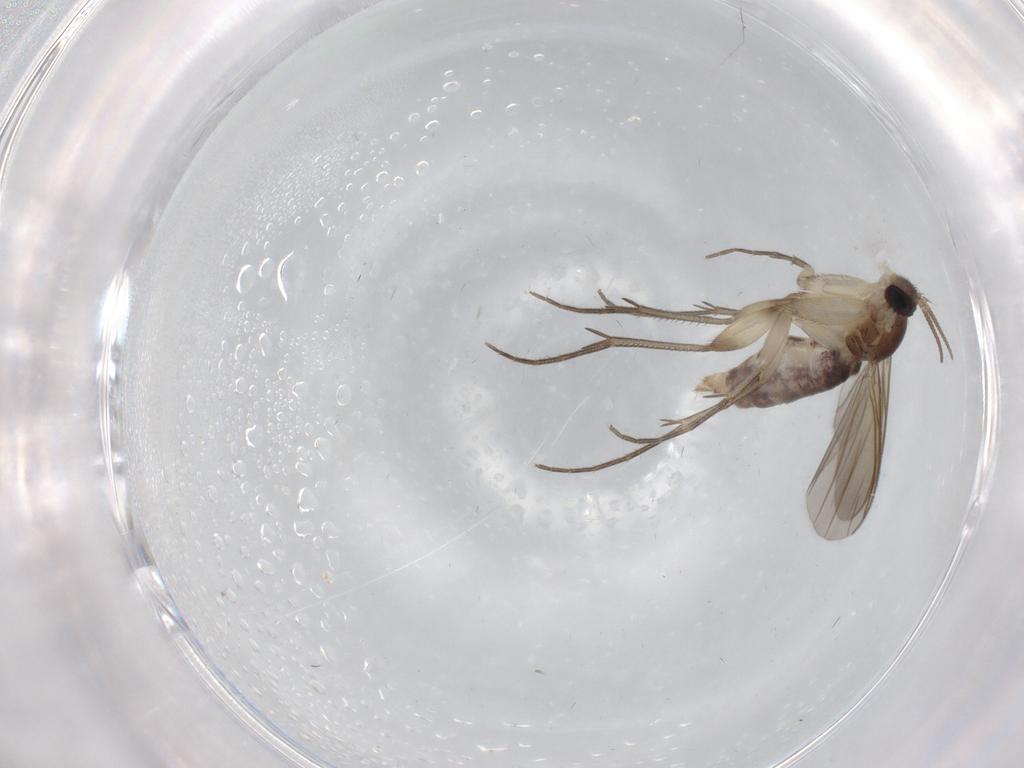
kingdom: Animalia
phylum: Arthropoda
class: Insecta
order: Diptera
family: Mycetophilidae
